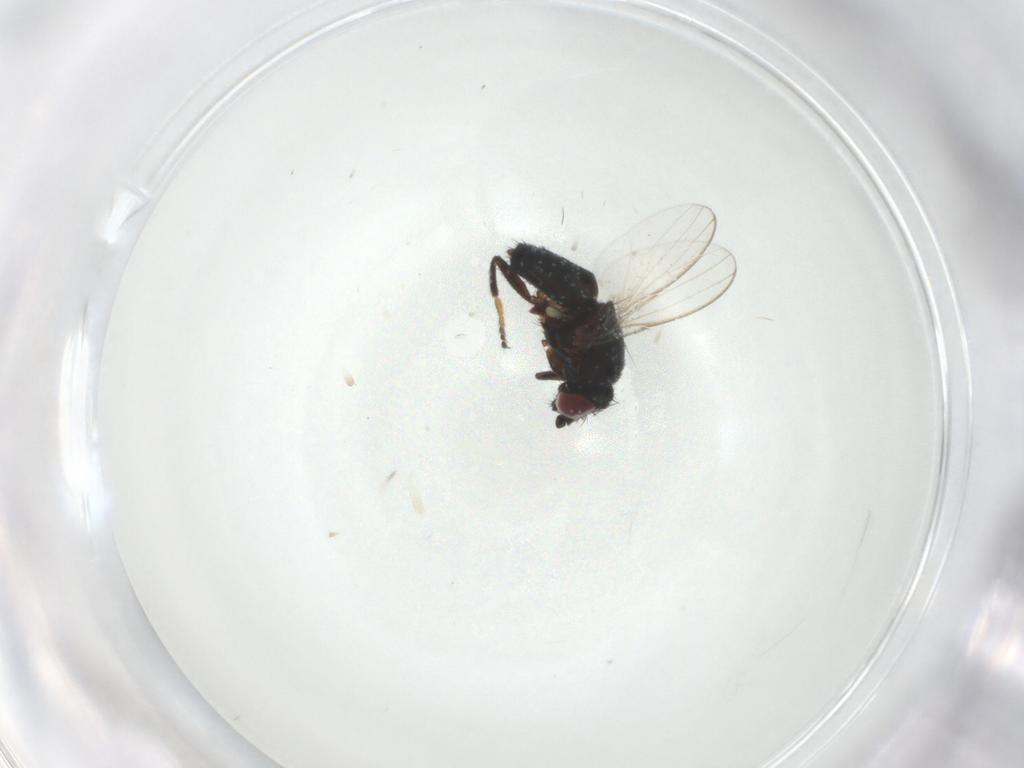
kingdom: Animalia
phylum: Arthropoda
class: Insecta
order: Diptera
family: Milichiidae
